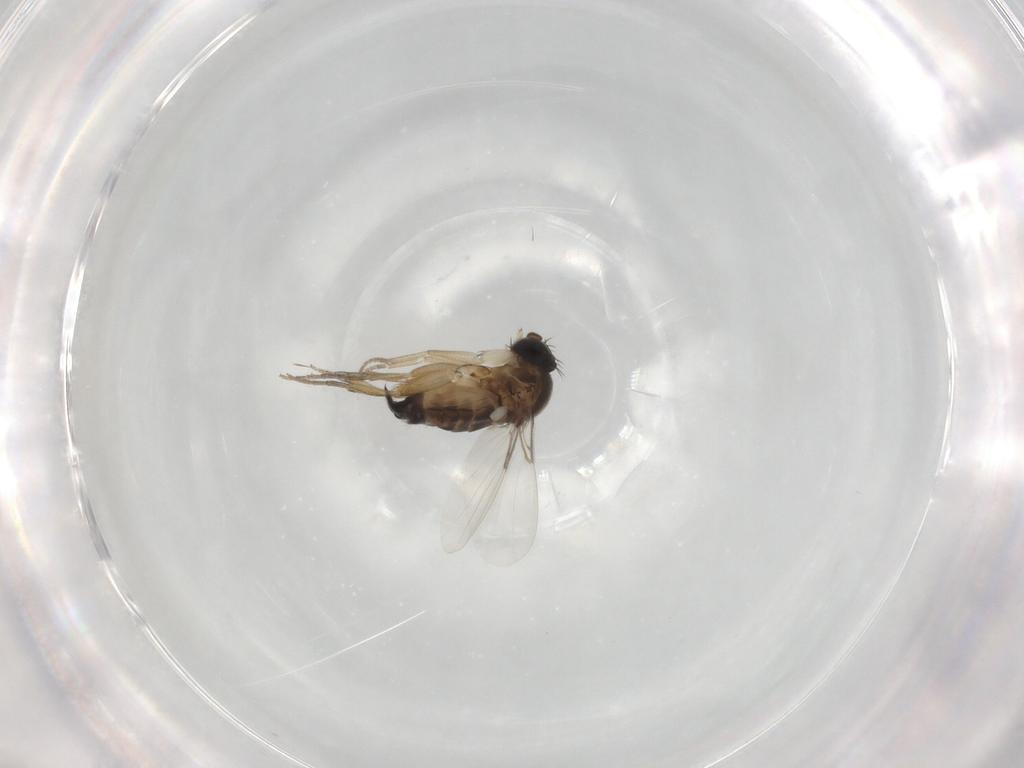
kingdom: Animalia
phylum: Arthropoda
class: Insecta
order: Diptera
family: Phoridae
